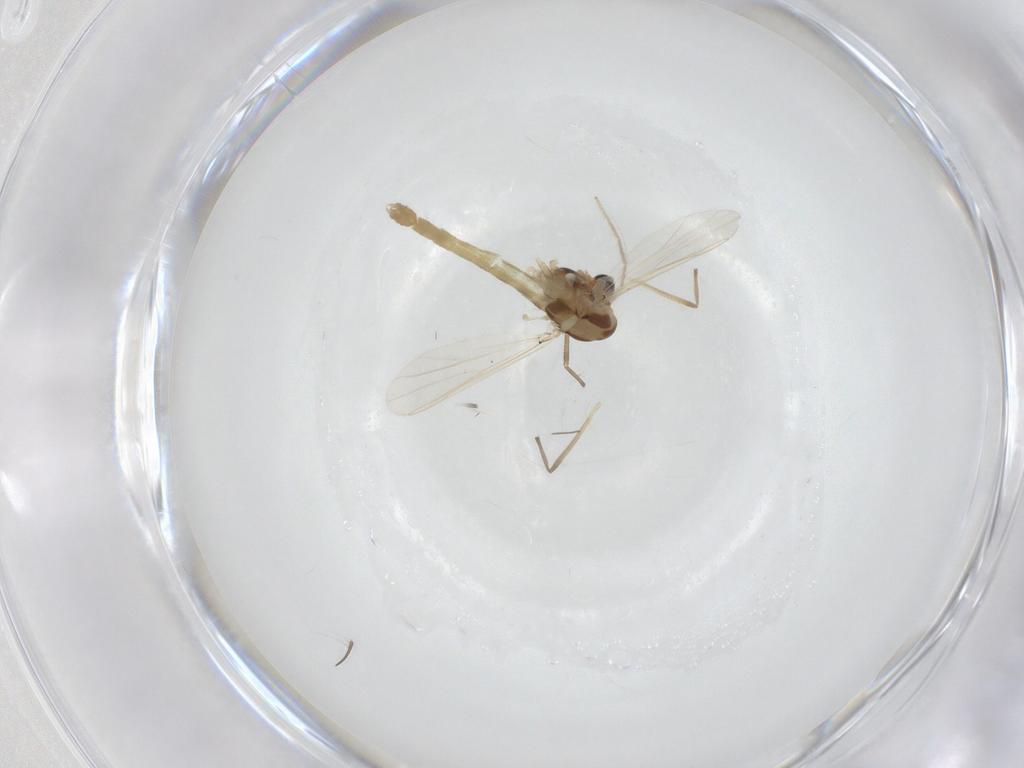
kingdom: Animalia
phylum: Arthropoda
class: Insecta
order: Diptera
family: Chironomidae
